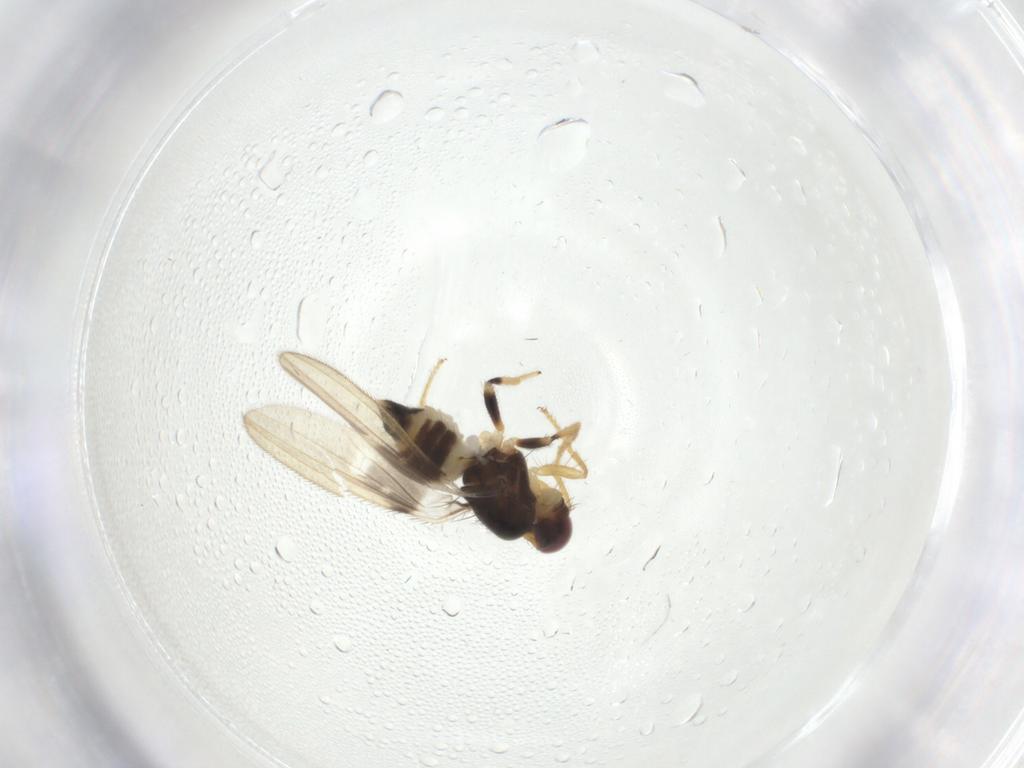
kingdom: Animalia
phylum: Arthropoda
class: Insecta
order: Diptera
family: Periscelididae
